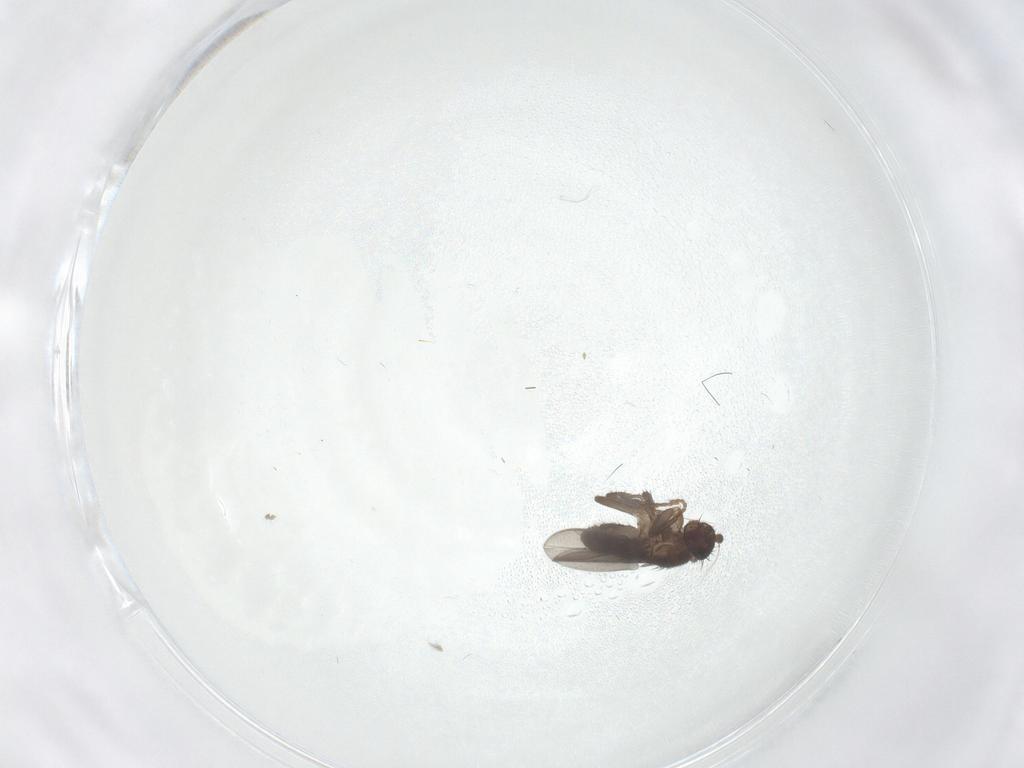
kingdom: Animalia
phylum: Arthropoda
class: Insecta
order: Diptera
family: Sphaeroceridae
